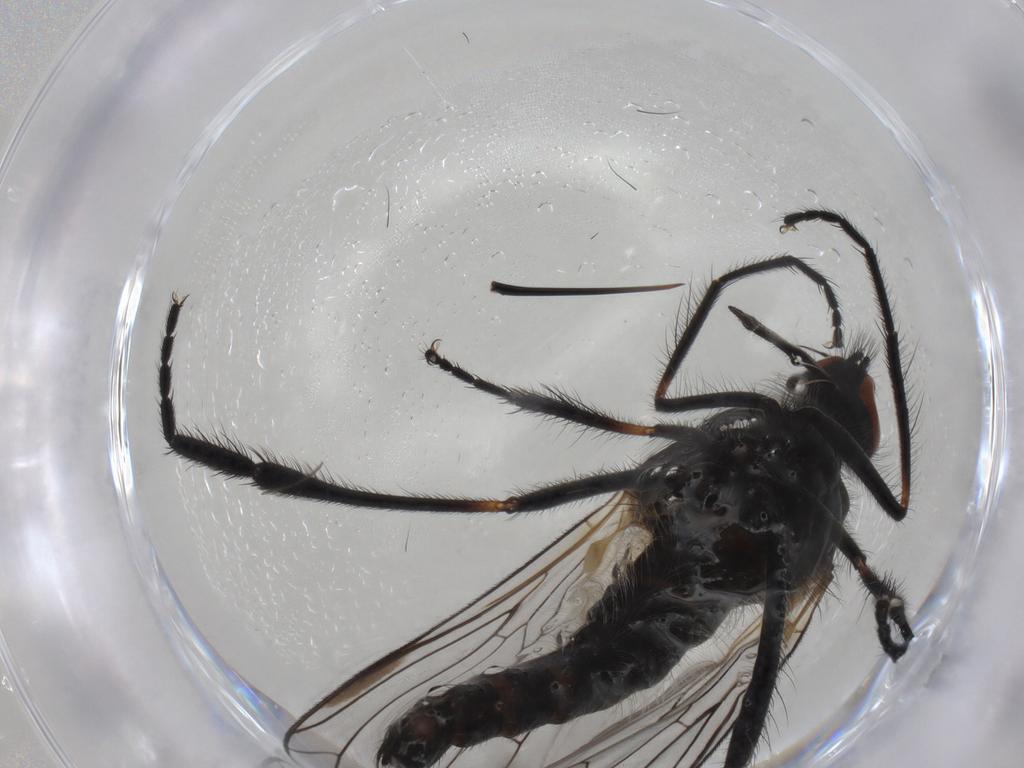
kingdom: Animalia
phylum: Arthropoda
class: Insecta
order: Diptera
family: Empididae
